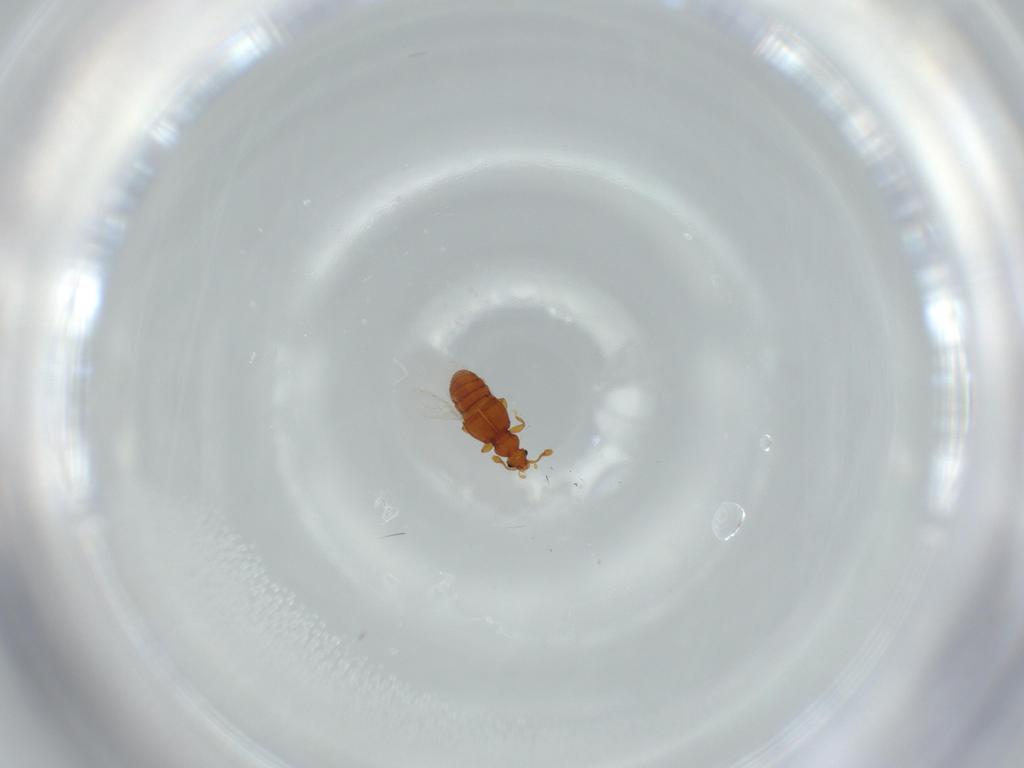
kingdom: Animalia
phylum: Arthropoda
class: Insecta
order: Coleoptera
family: Staphylinidae
